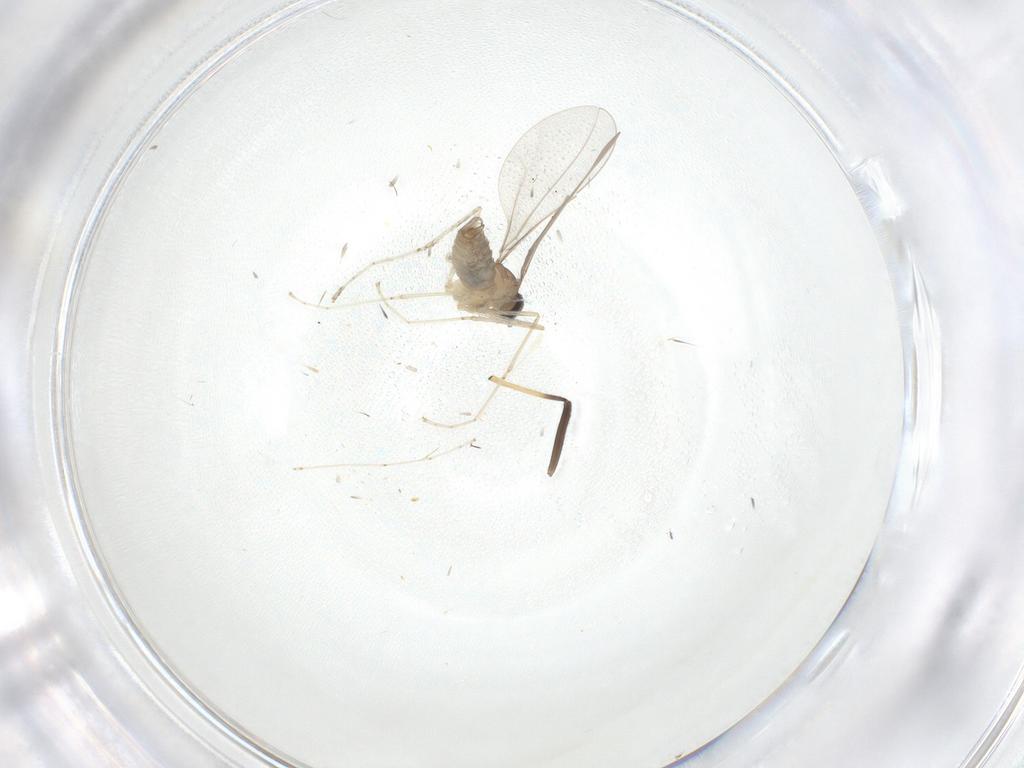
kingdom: Animalia
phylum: Arthropoda
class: Insecta
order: Diptera
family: Cecidomyiidae
